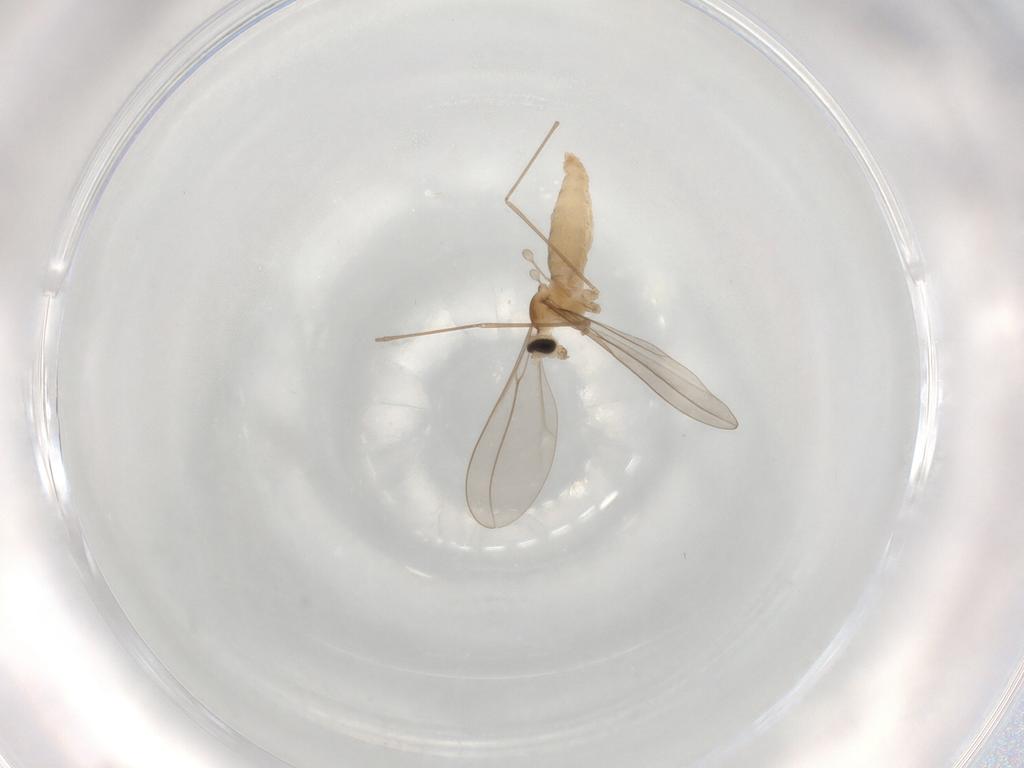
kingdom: Animalia
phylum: Arthropoda
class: Insecta
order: Diptera
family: Cecidomyiidae
